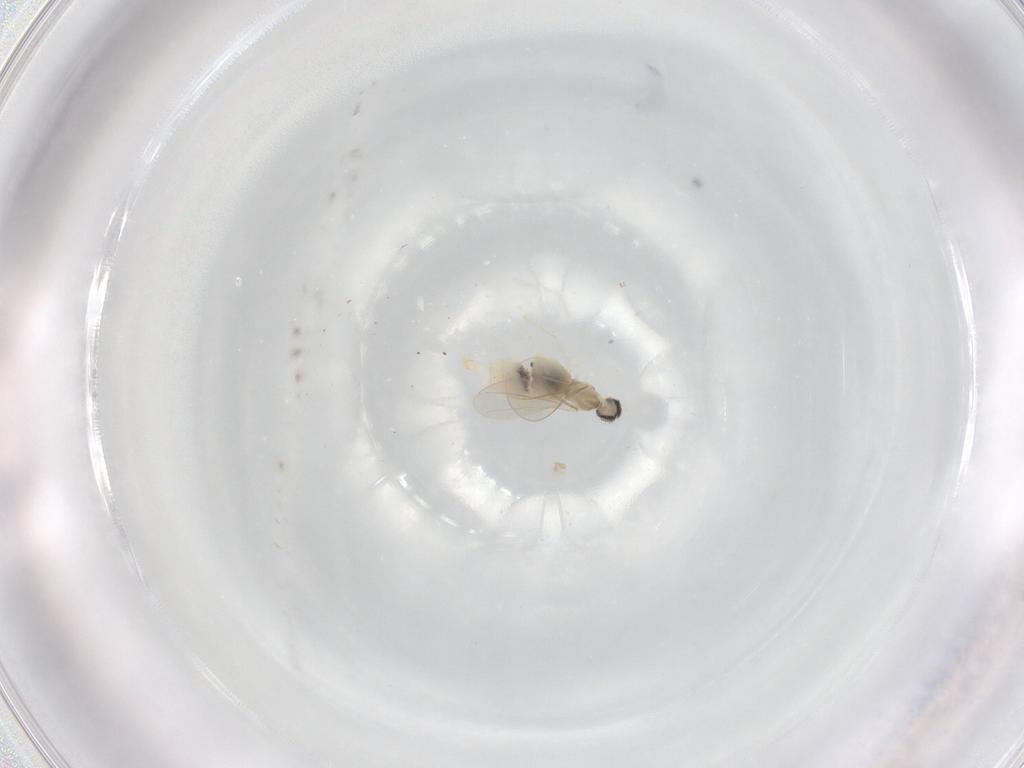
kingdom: Animalia
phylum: Arthropoda
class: Insecta
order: Diptera
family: Cecidomyiidae
